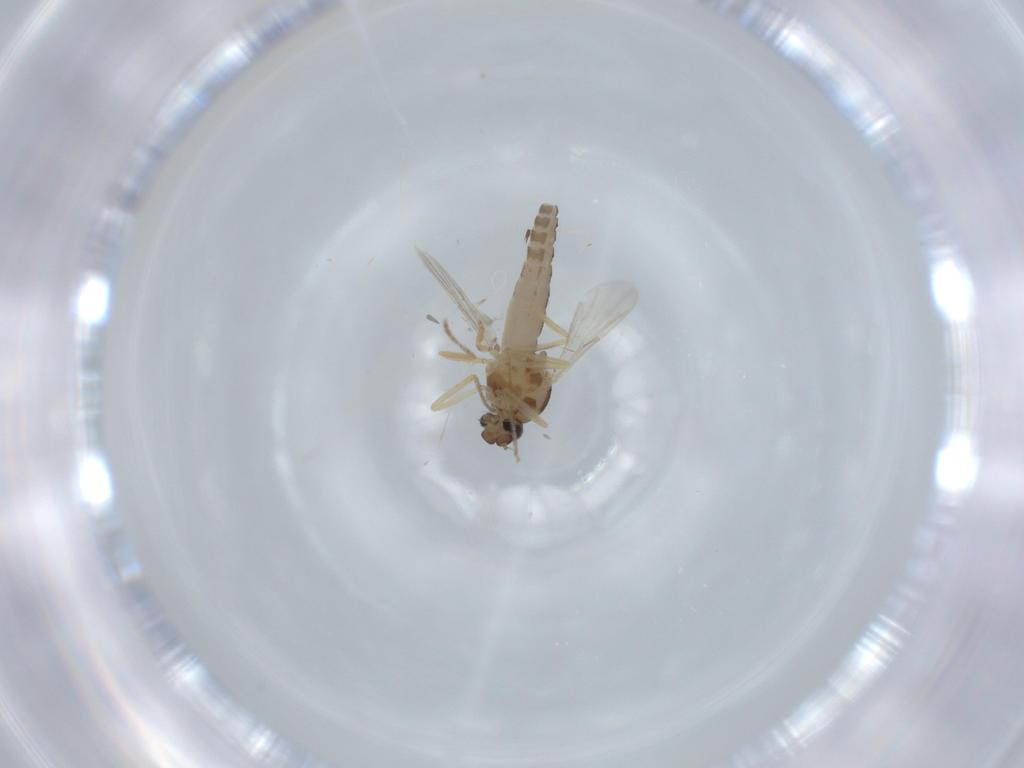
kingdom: Animalia
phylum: Arthropoda
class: Insecta
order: Diptera
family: Ceratopogonidae
